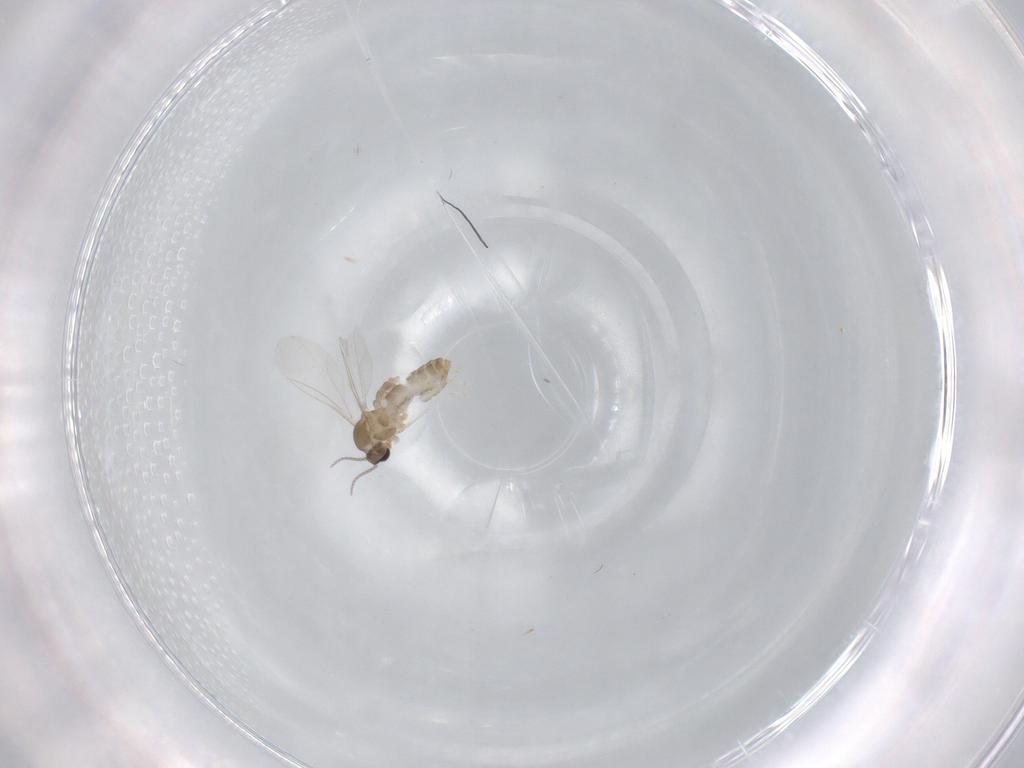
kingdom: Animalia
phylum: Arthropoda
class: Insecta
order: Diptera
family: Cecidomyiidae
